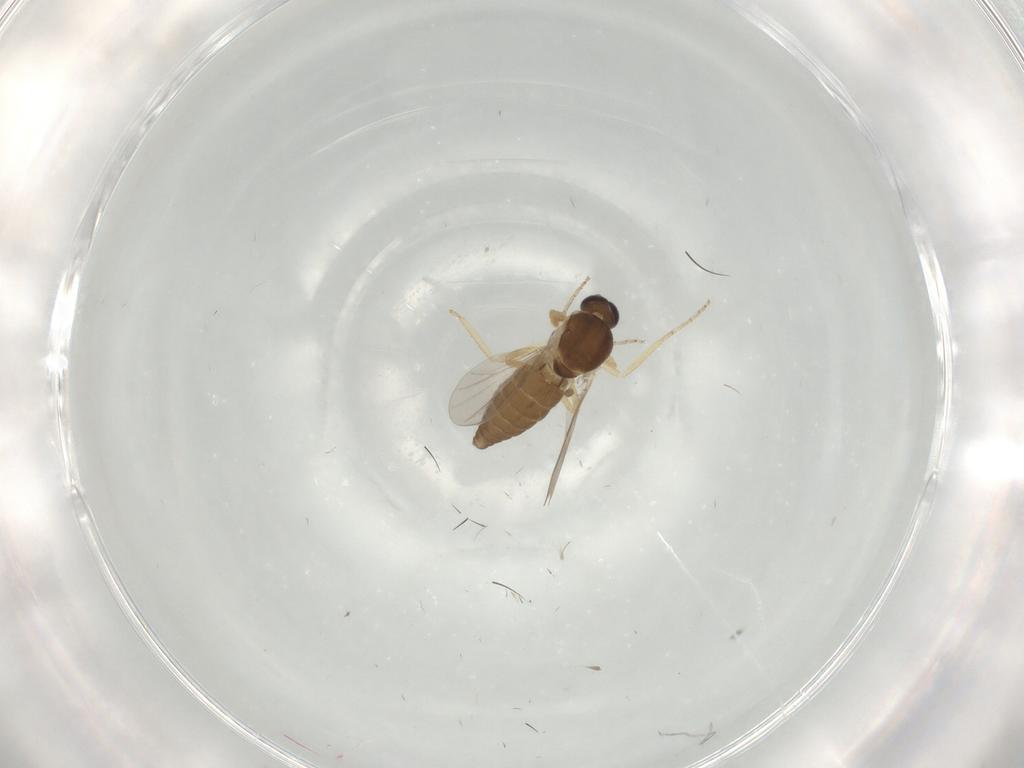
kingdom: Animalia
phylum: Arthropoda
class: Insecta
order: Diptera
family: Ceratopogonidae
